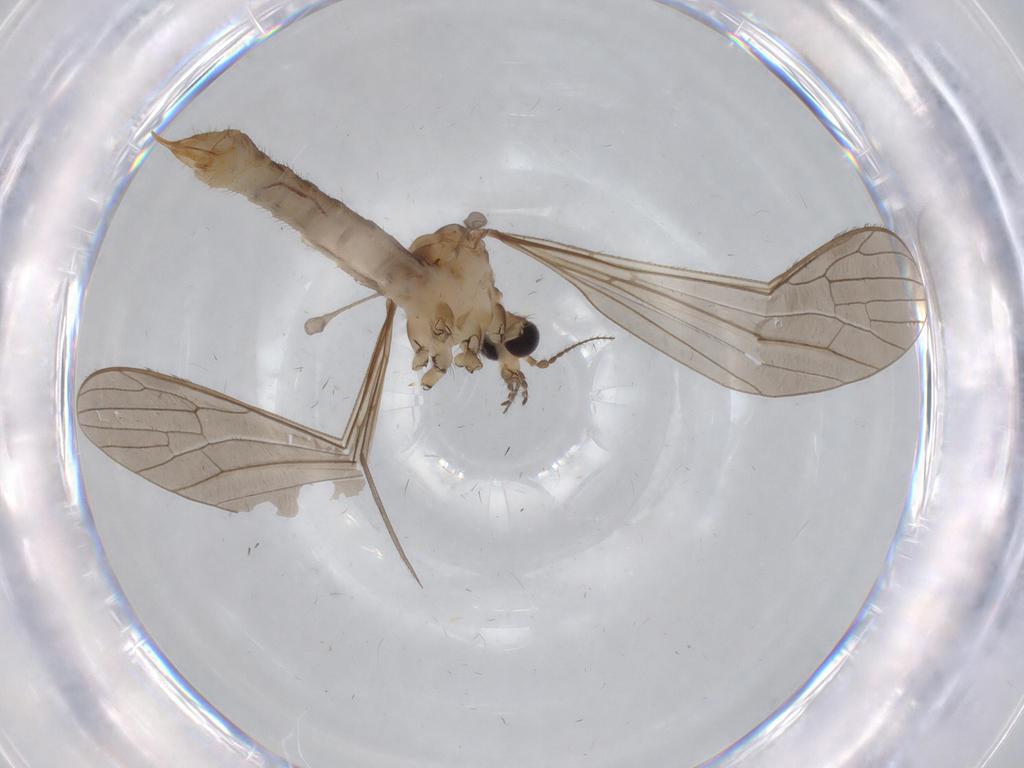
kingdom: Animalia
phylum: Arthropoda
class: Insecta
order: Diptera
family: Limoniidae
